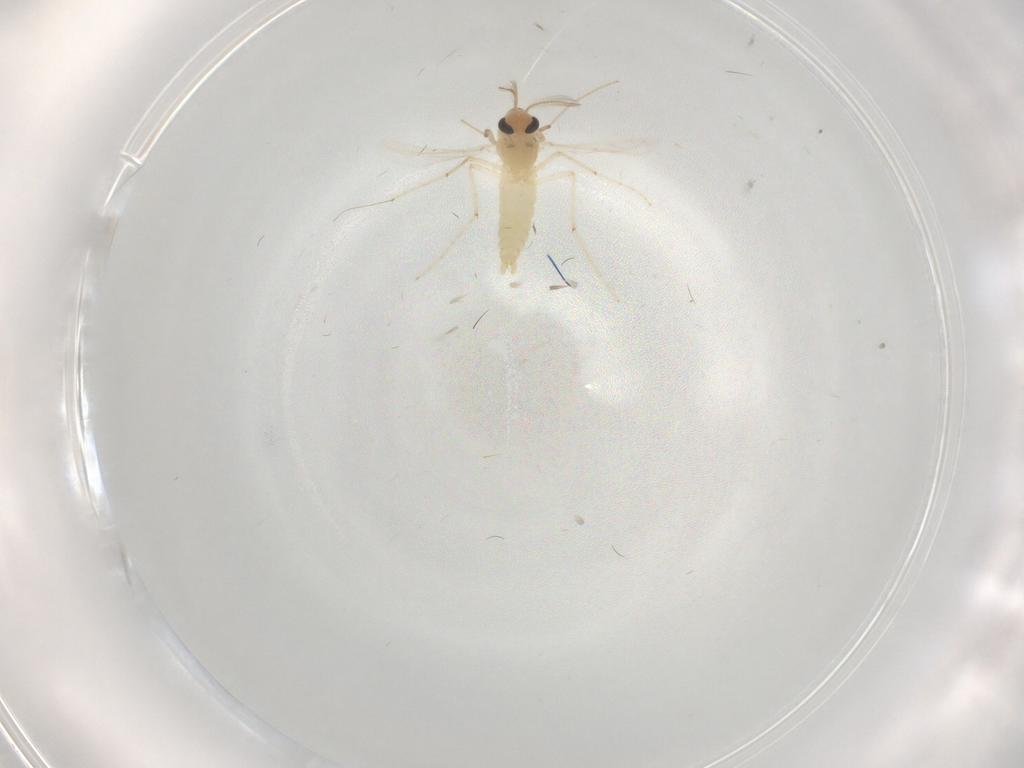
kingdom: Animalia
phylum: Arthropoda
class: Insecta
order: Diptera
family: Chironomidae
